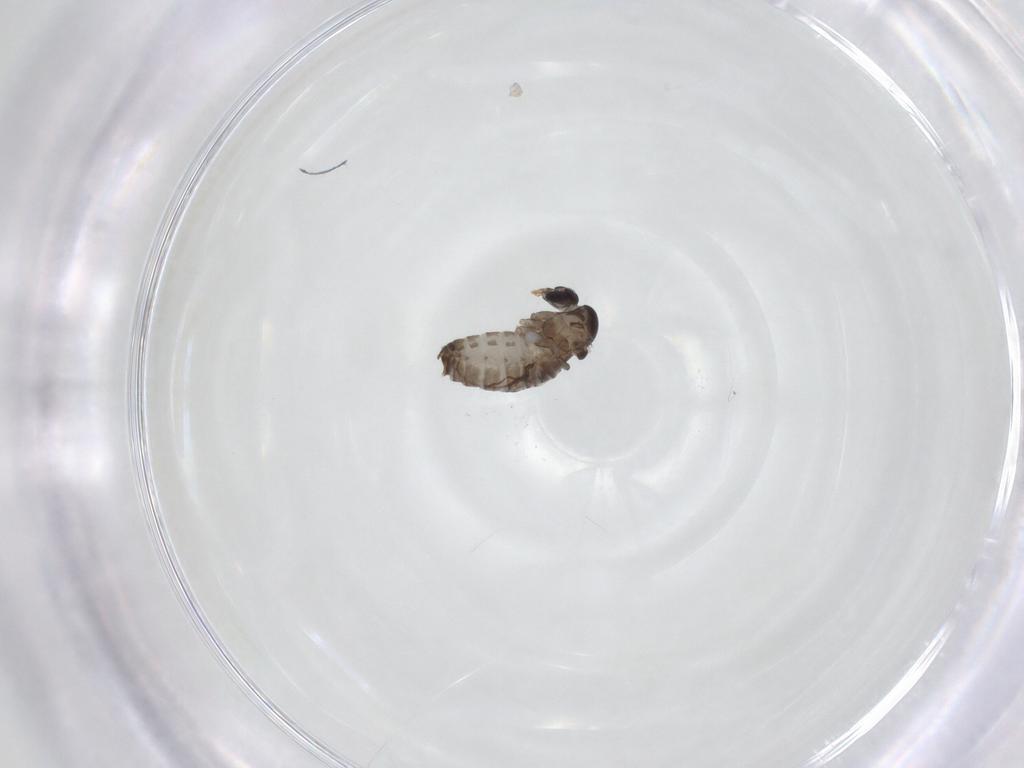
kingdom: Animalia
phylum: Arthropoda
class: Insecta
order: Diptera
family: Psychodidae
